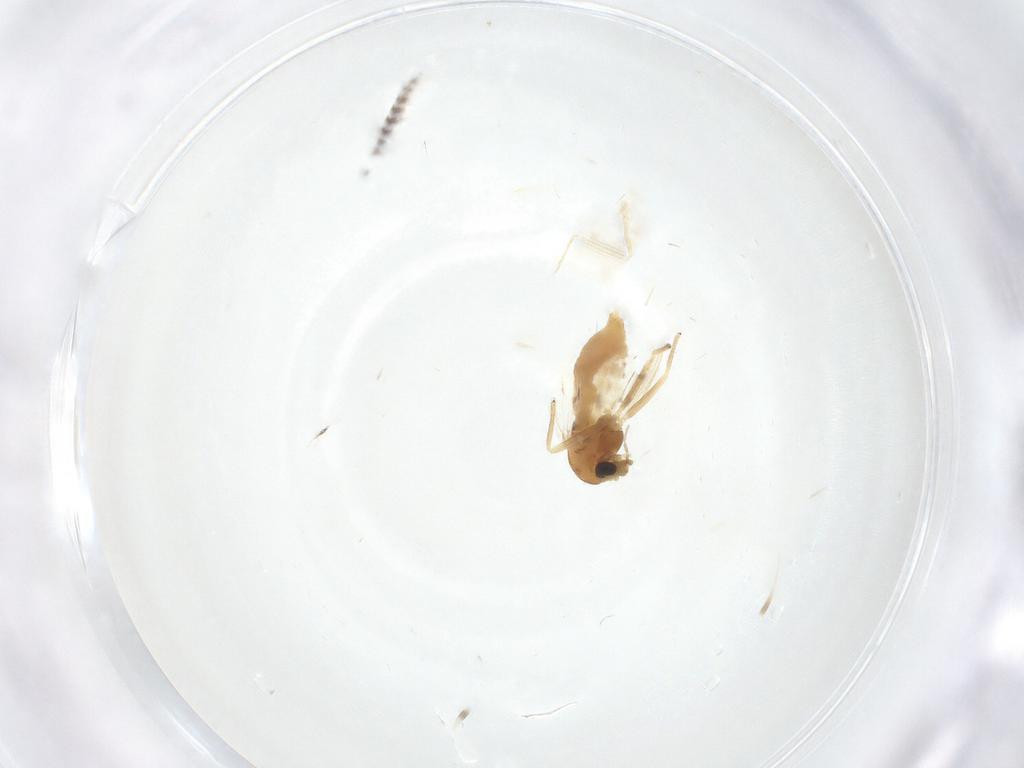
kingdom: Animalia
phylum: Arthropoda
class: Insecta
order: Diptera
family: Chironomidae
